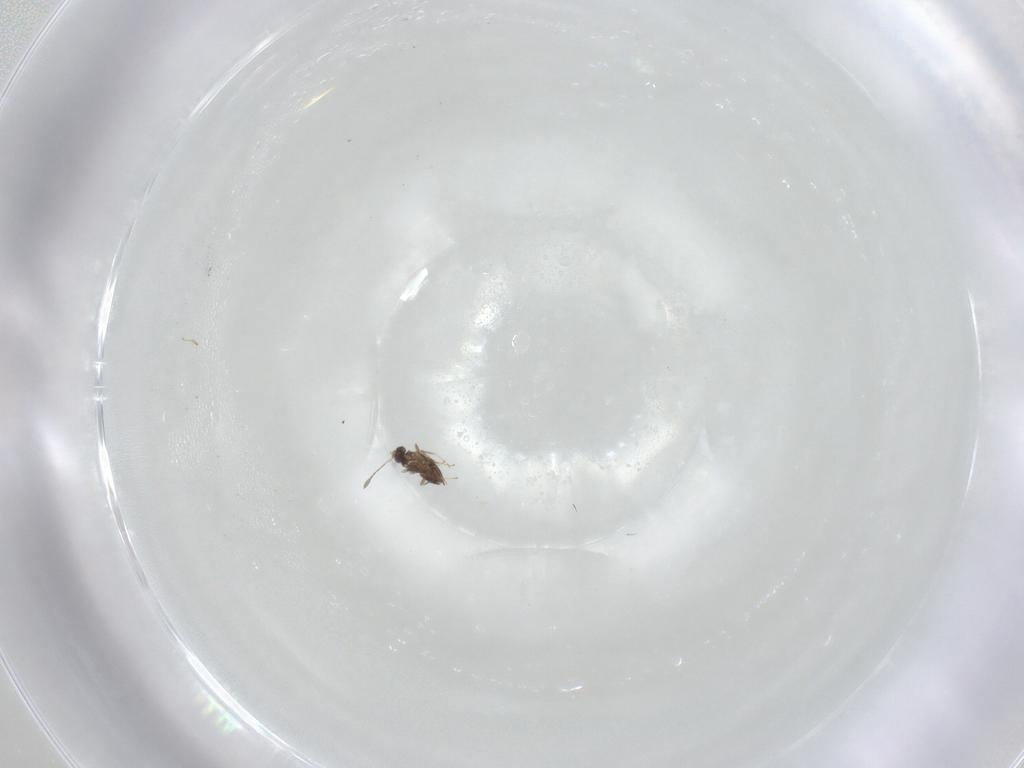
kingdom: Animalia
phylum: Arthropoda
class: Insecta
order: Hymenoptera
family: Mymaridae
